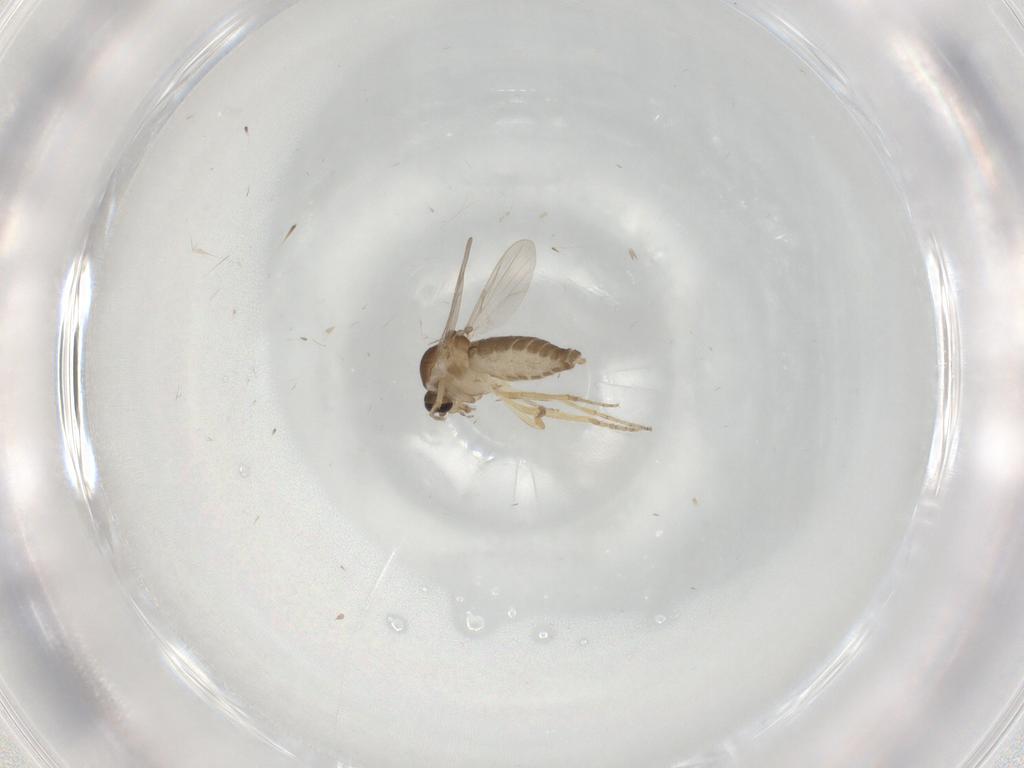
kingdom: Animalia
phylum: Arthropoda
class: Insecta
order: Diptera
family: Ceratopogonidae
